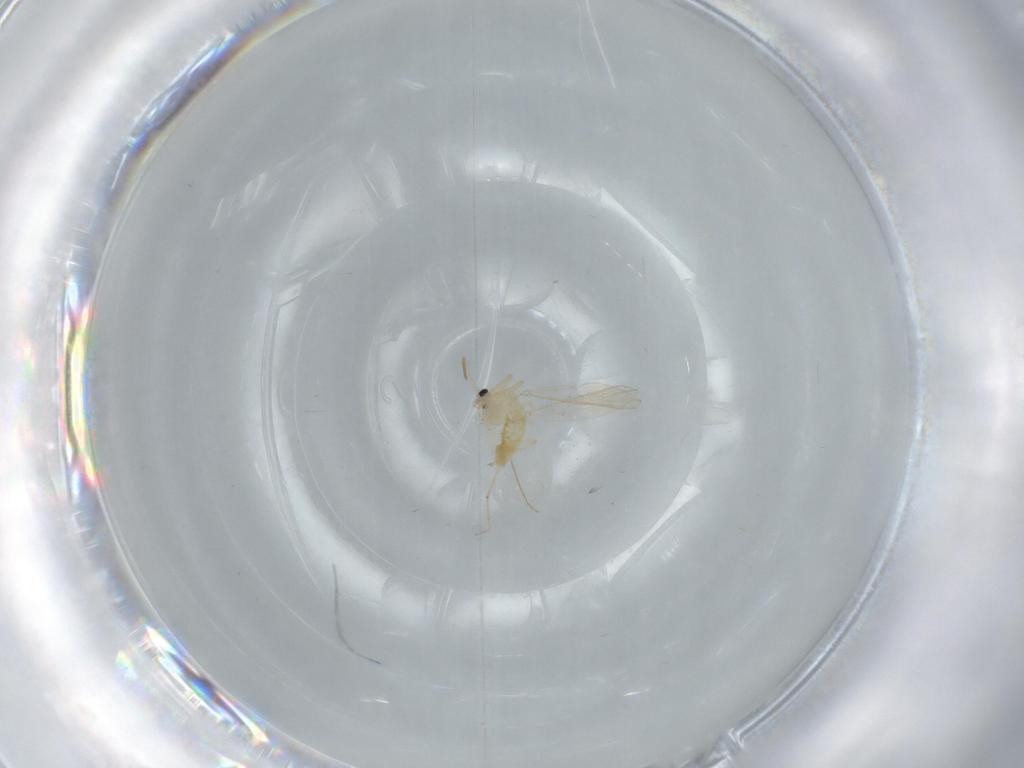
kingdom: Animalia
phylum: Arthropoda
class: Insecta
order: Diptera
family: Chironomidae
